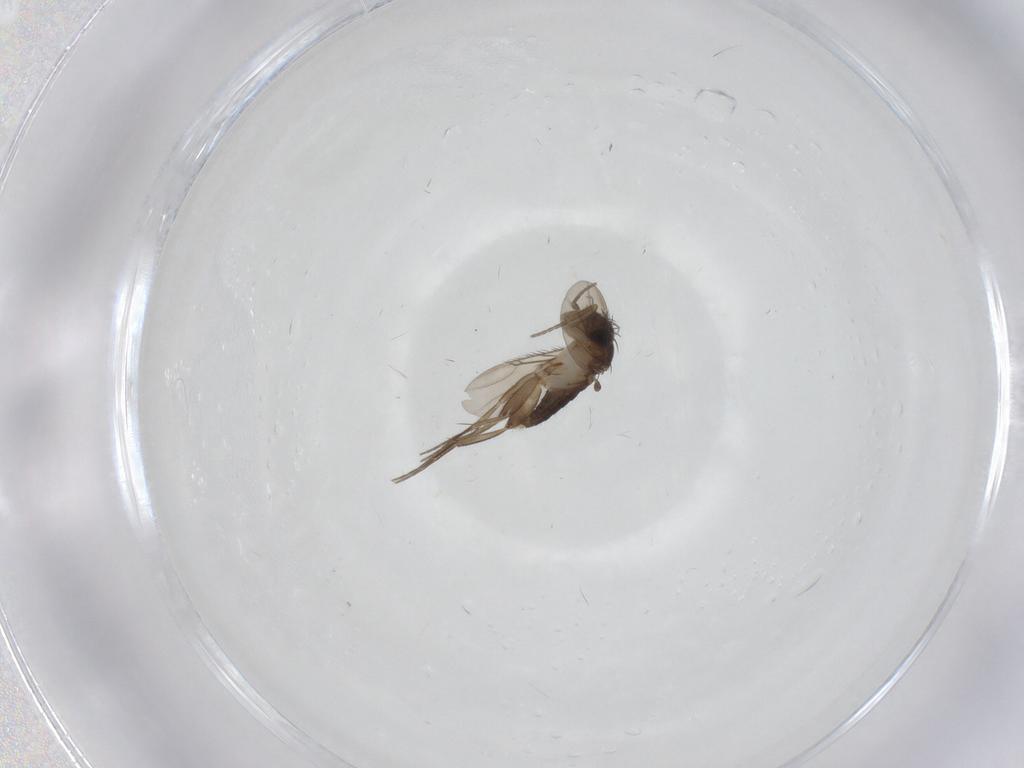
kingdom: Animalia
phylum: Arthropoda
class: Insecta
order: Diptera
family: Phoridae
